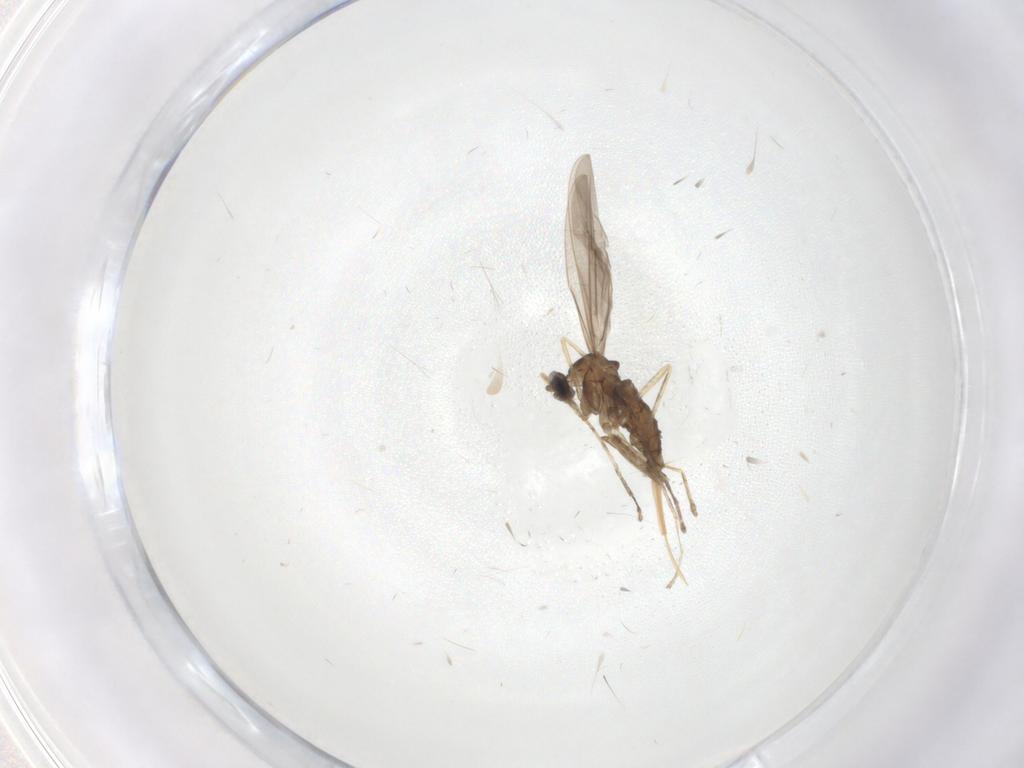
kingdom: Animalia
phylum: Arthropoda
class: Insecta
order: Diptera
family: Cecidomyiidae
